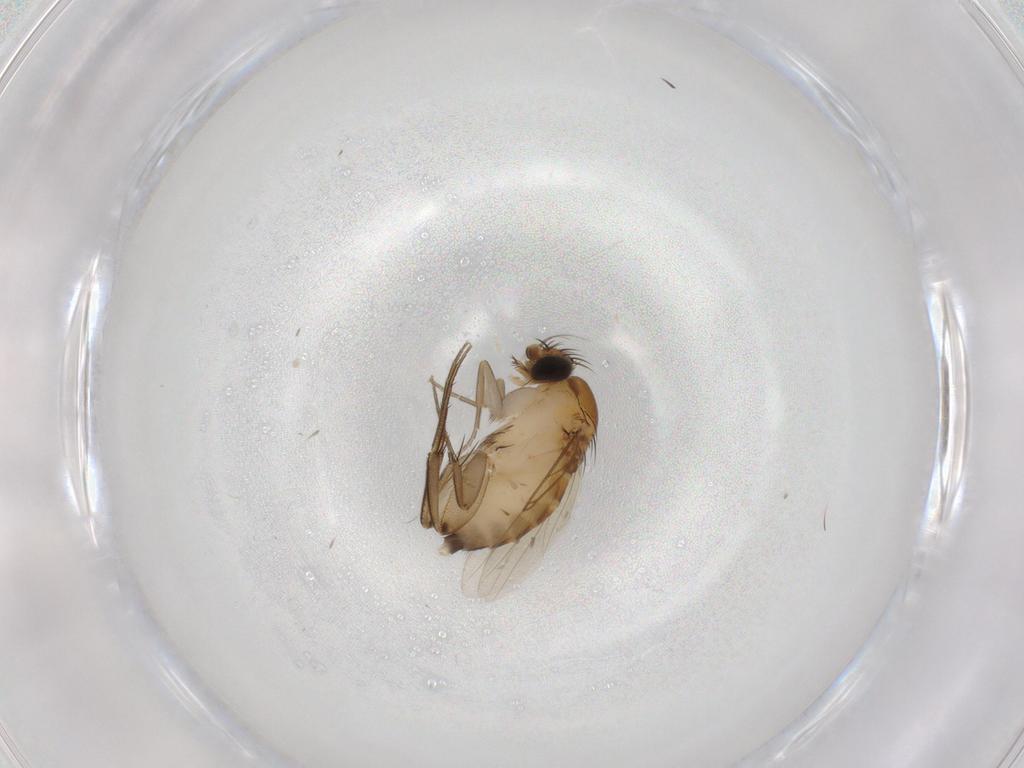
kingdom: Animalia
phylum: Arthropoda
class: Insecta
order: Diptera
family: Phoridae
